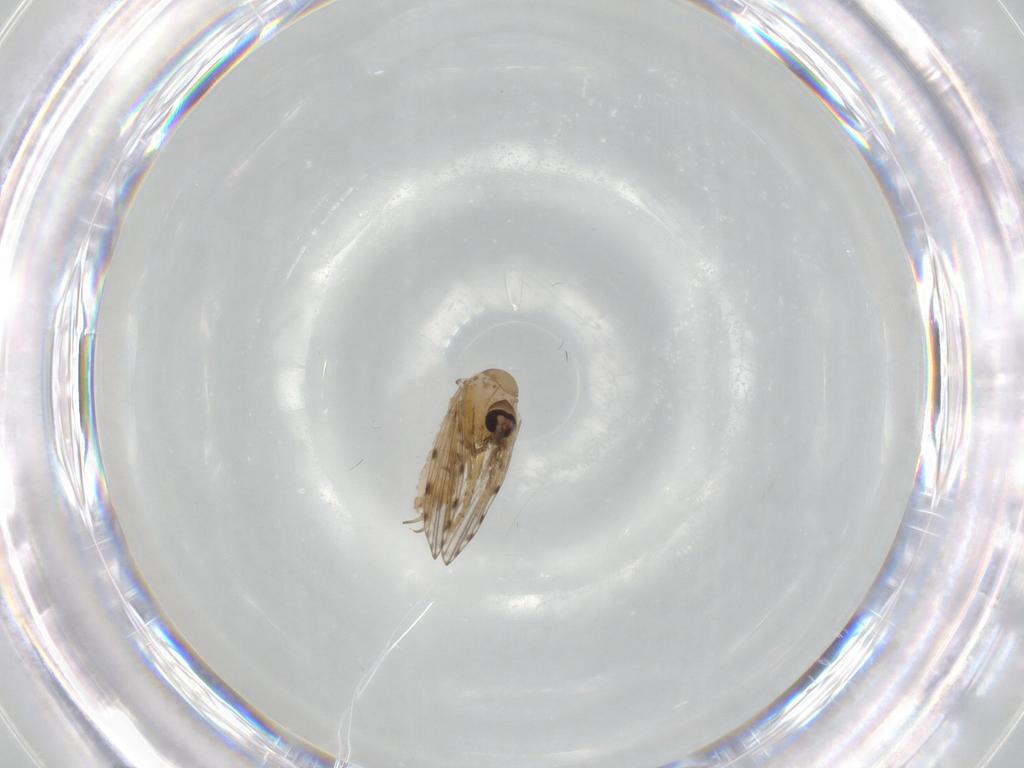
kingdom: Animalia
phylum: Arthropoda
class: Insecta
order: Diptera
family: Psychodidae
